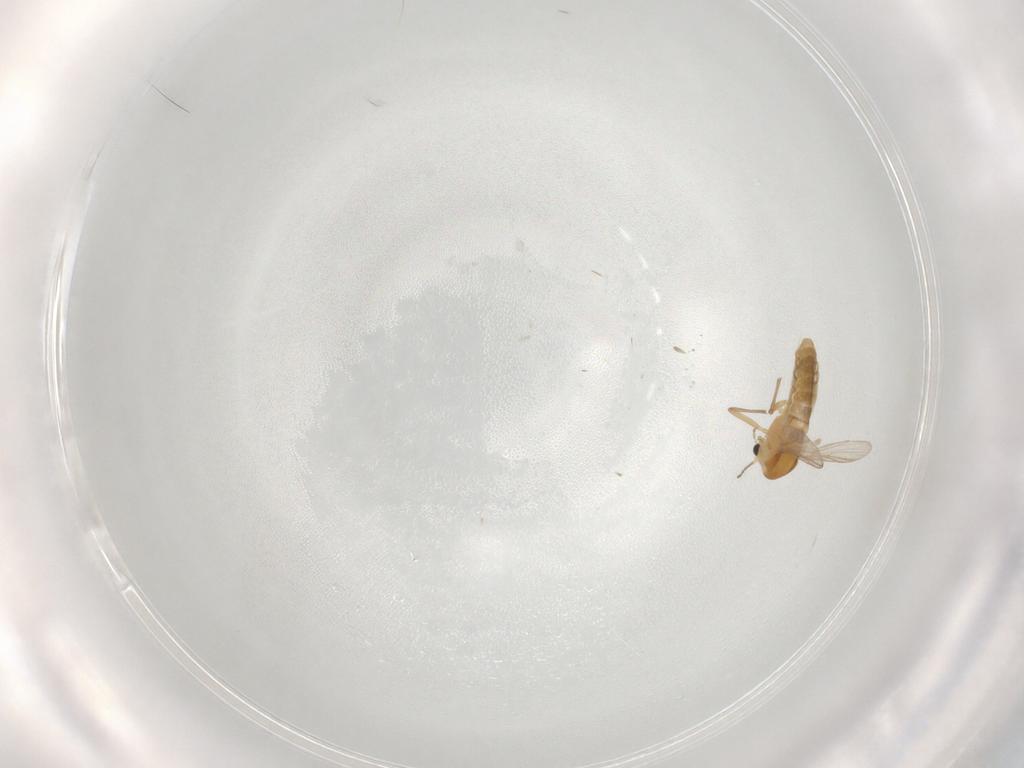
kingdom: Animalia
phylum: Arthropoda
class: Insecta
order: Diptera
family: Chironomidae
